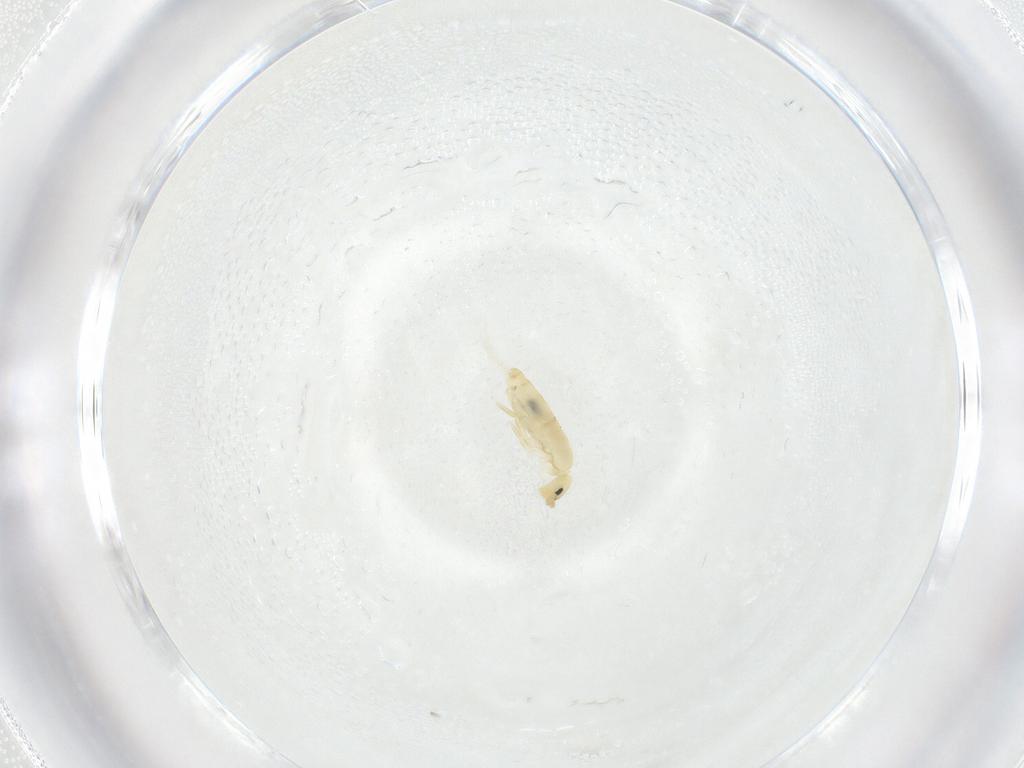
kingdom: Animalia
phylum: Arthropoda
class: Collembola
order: Entomobryomorpha
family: Entomobryidae
